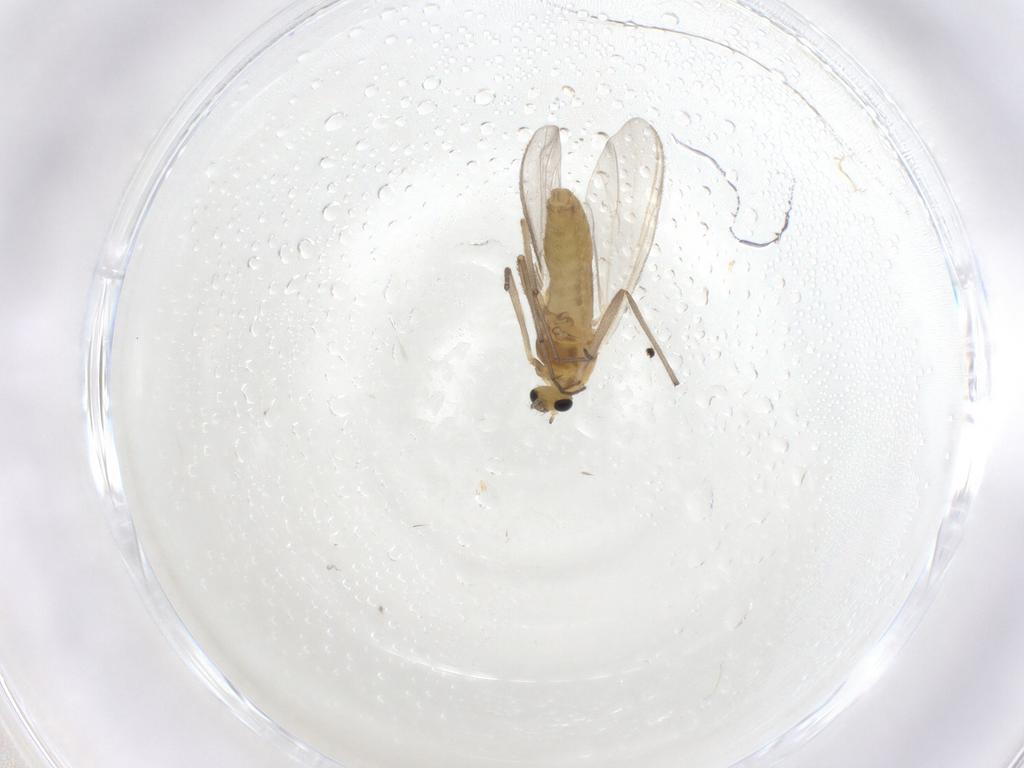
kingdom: Animalia
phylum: Arthropoda
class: Insecta
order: Diptera
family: Chironomidae
